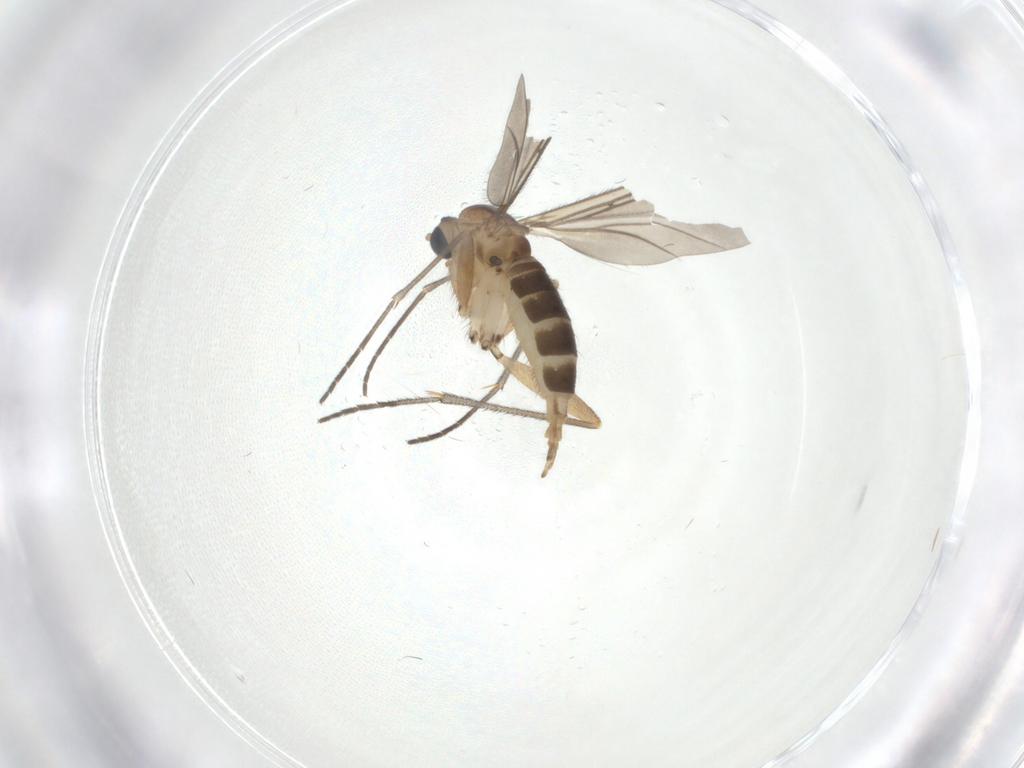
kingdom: Animalia
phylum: Arthropoda
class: Insecta
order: Diptera
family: Sciaridae
